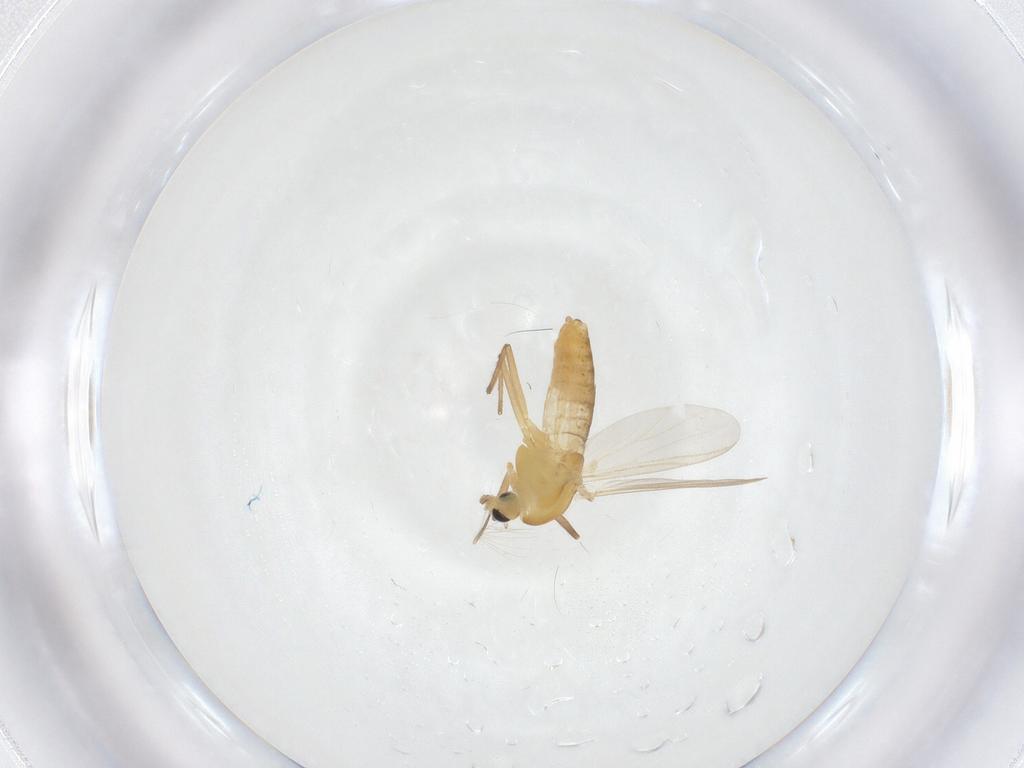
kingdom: Animalia
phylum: Arthropoda
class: Insecta
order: Diptera
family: Chironomidae
